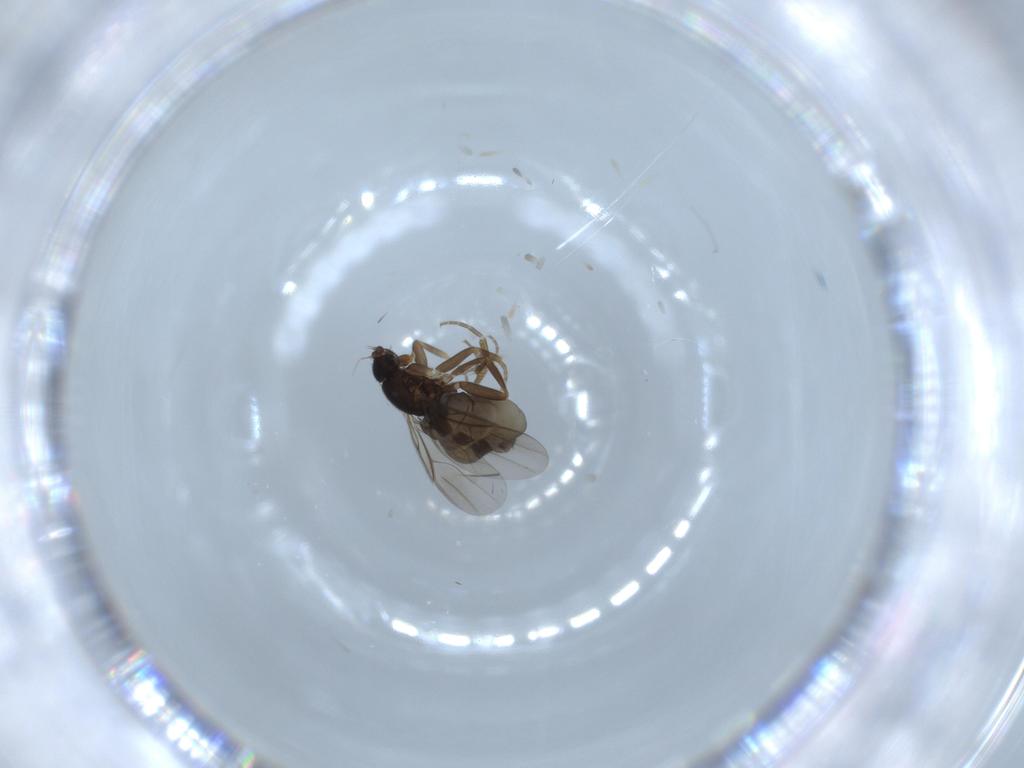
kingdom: Animalia
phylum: Arthropoda
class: Insecta
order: Diptera
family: Phoridae
